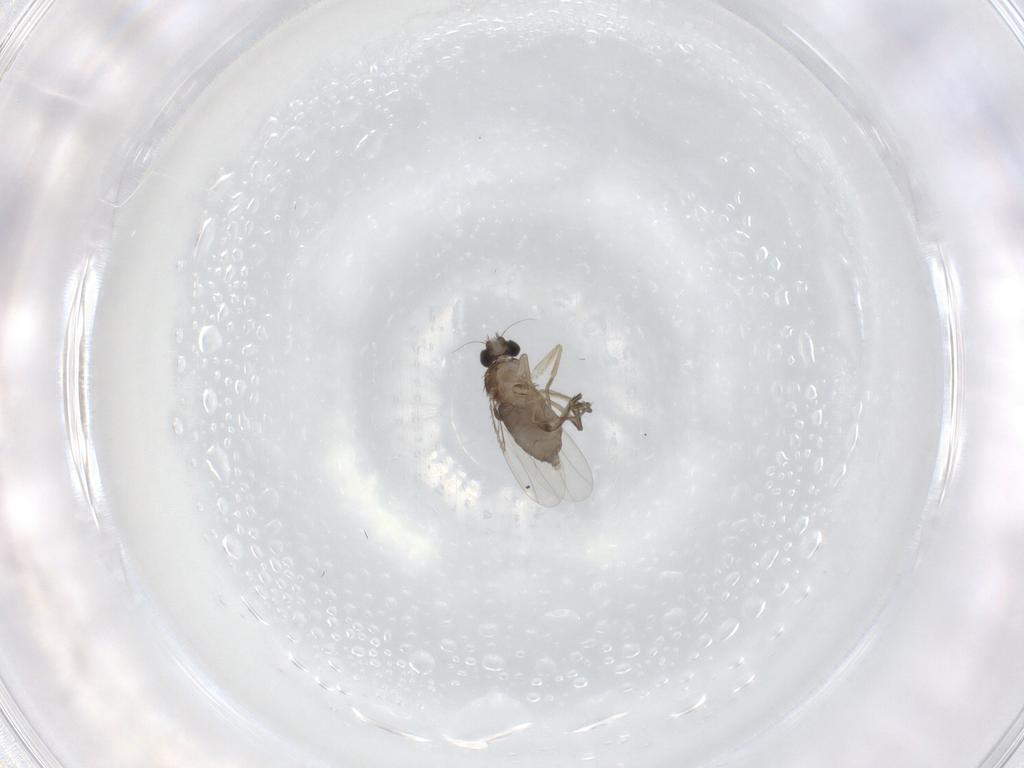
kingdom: Animalia
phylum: Arthropoda
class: Insecta
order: Diptera
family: Phoridae
